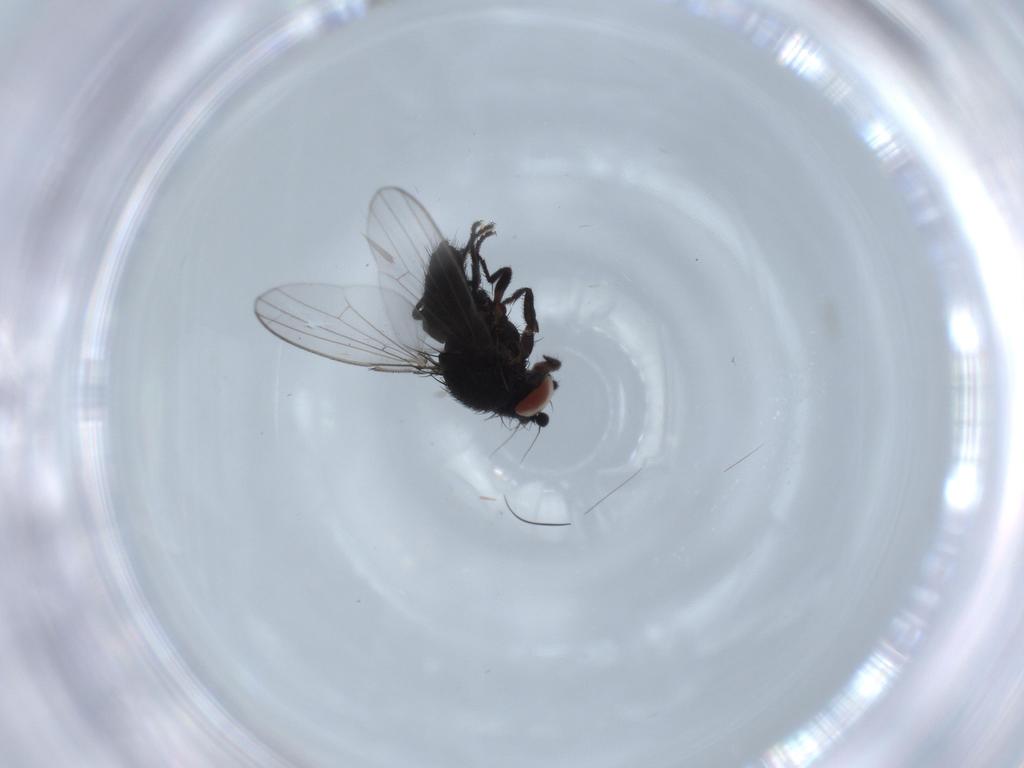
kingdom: Animalia
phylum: Arthropoda
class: Insecta
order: Diptera
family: Milichiidae
